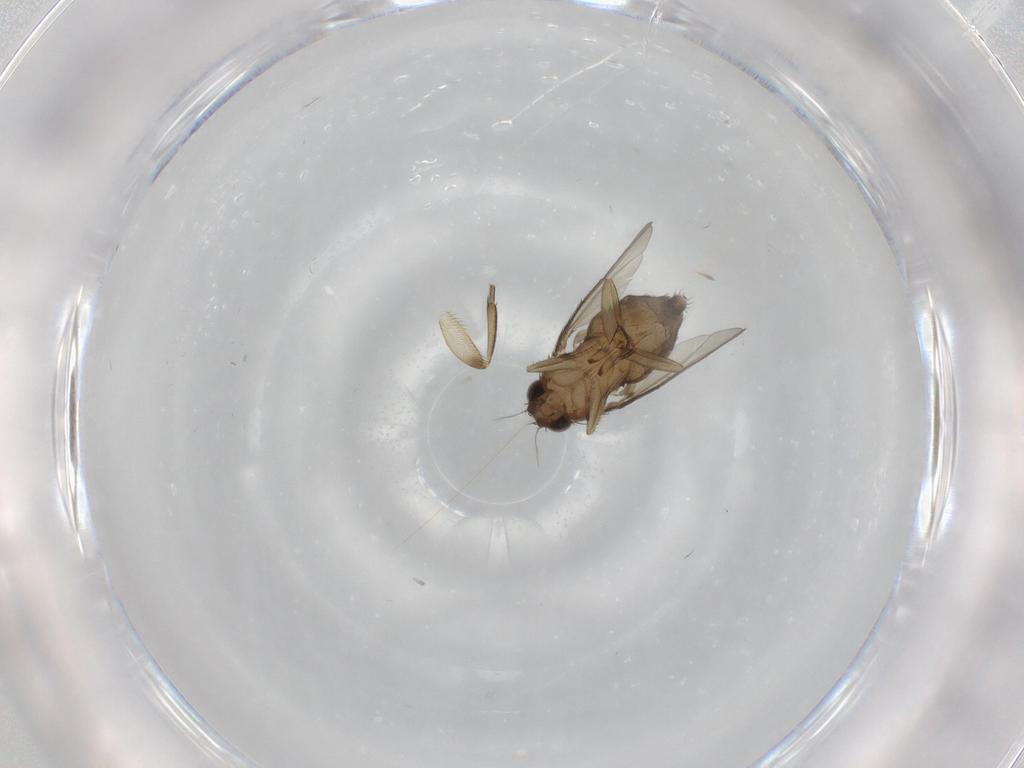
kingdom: Animalia
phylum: Arthropoda
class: Insecta
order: Diptera
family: Phoridae
